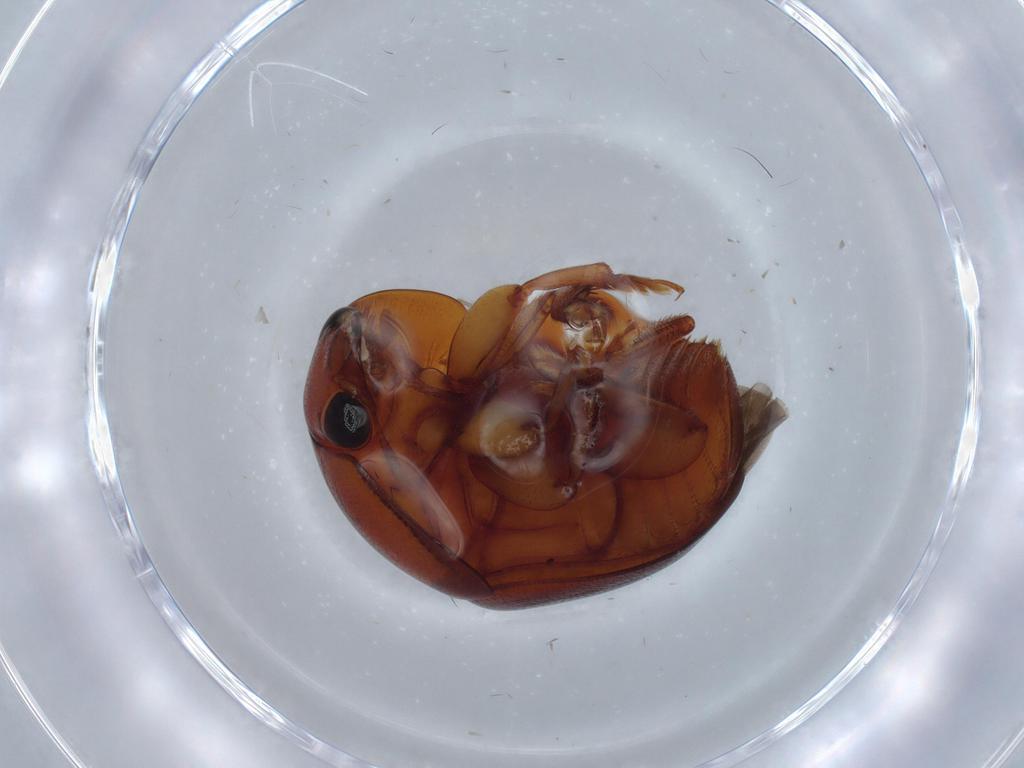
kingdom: Animalia
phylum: Arthropoda
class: Insecta
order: Coleoptera
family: Nitidulidae
